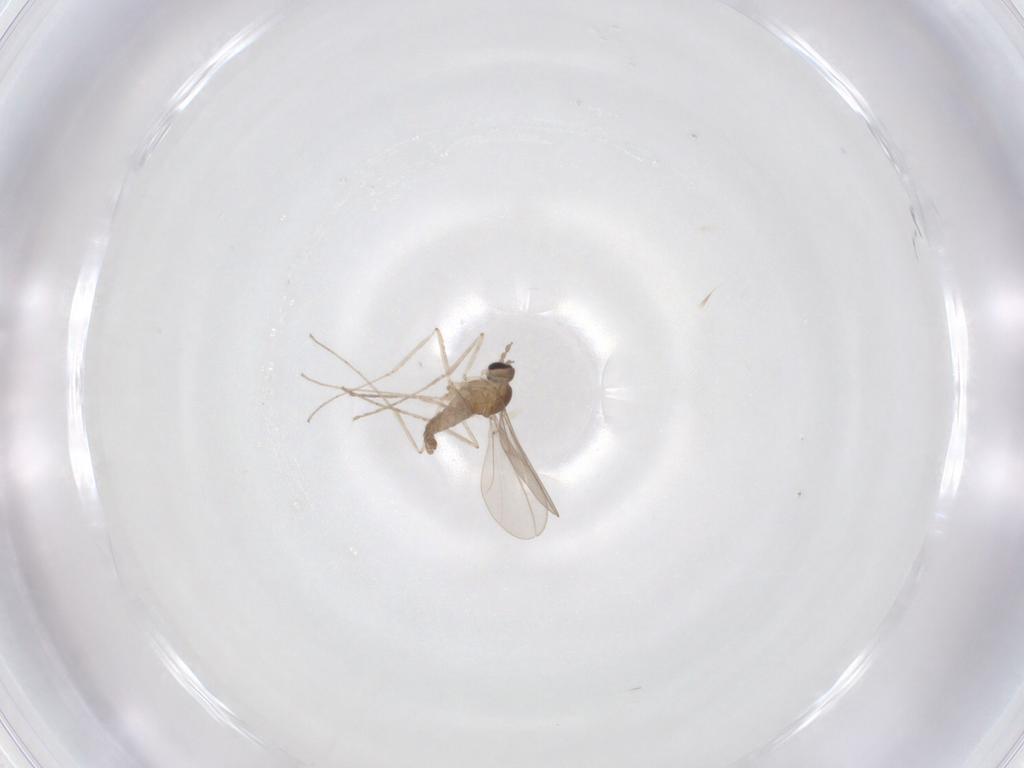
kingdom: Animalia
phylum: Arthropoda
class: Insecta
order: Diptera
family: Cecidomyiidae
